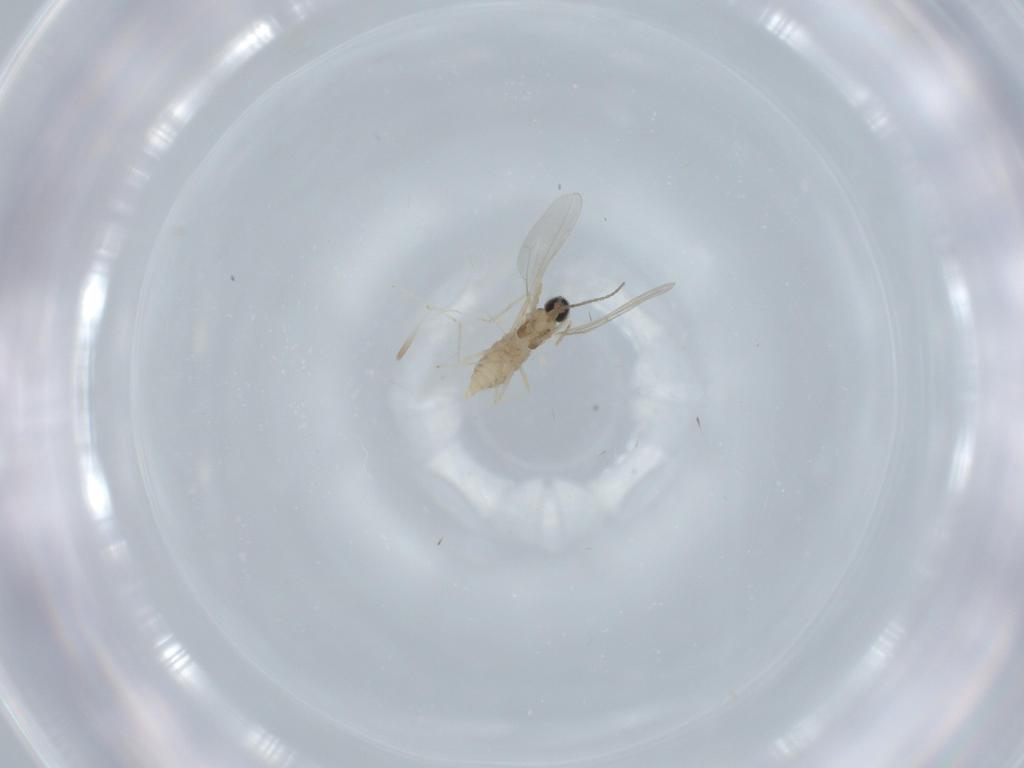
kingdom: Animalia
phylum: Arthropoda
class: Insecta
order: Diptera
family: Cecidomyiidae
